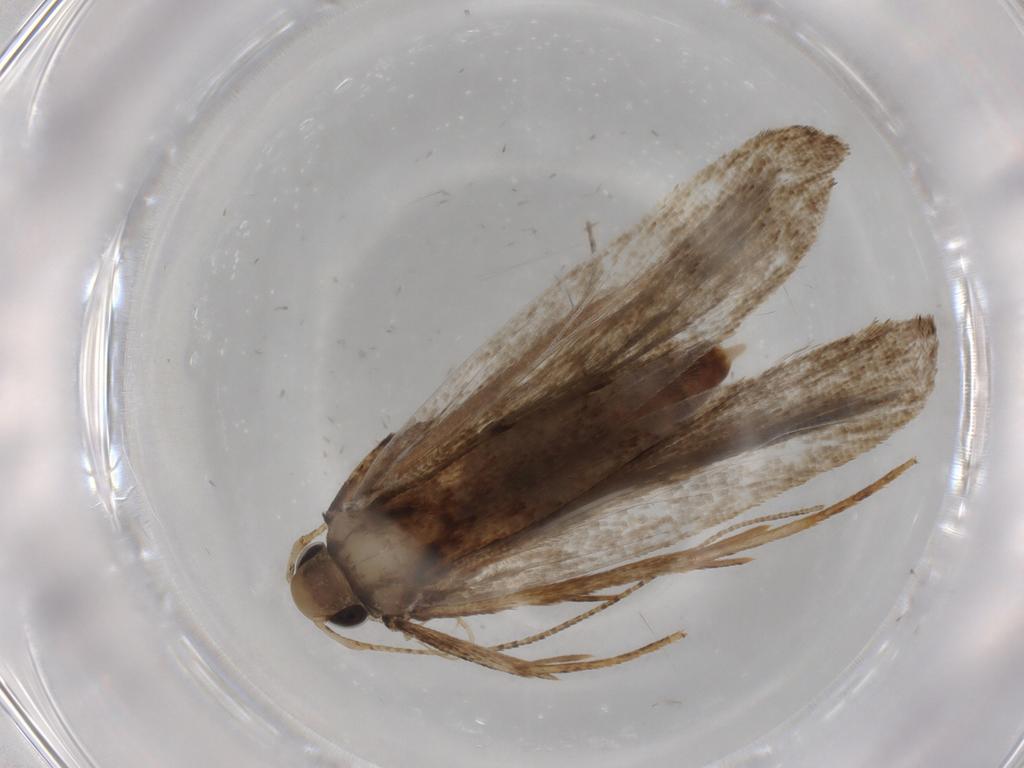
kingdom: Animalia
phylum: Arthropoda
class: Insecta
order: Lepidoptera
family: Cosmopterigidae
